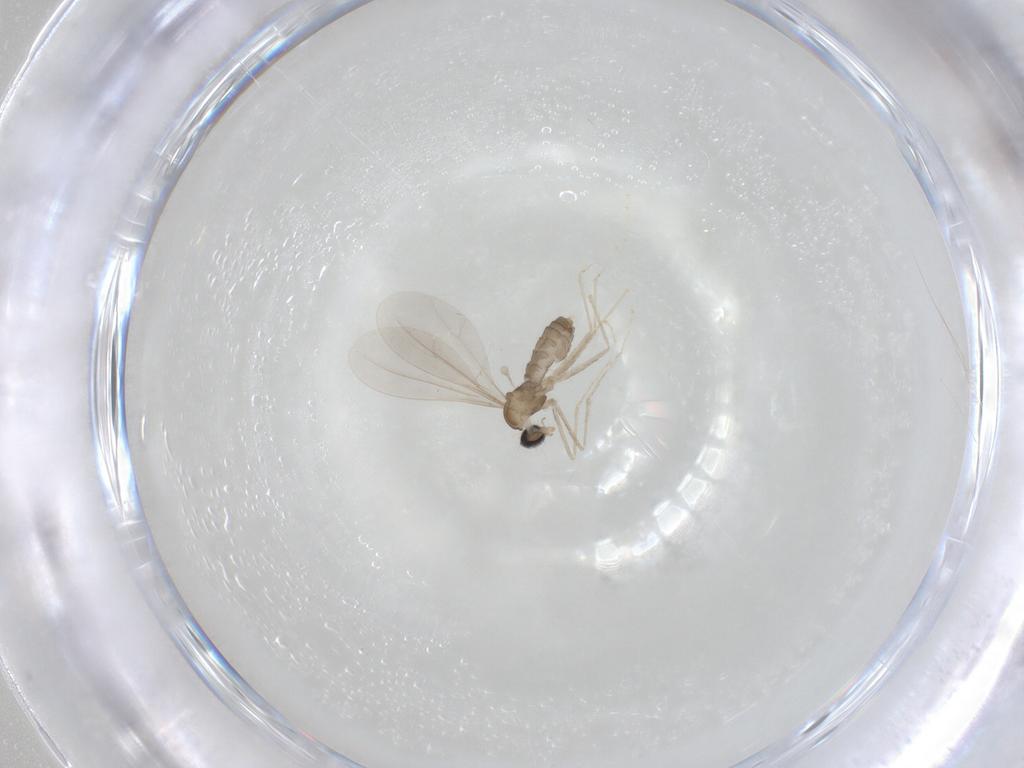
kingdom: Animalia
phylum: Arthropoda
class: Insecta
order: Diptera
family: Cecidomyiidae
